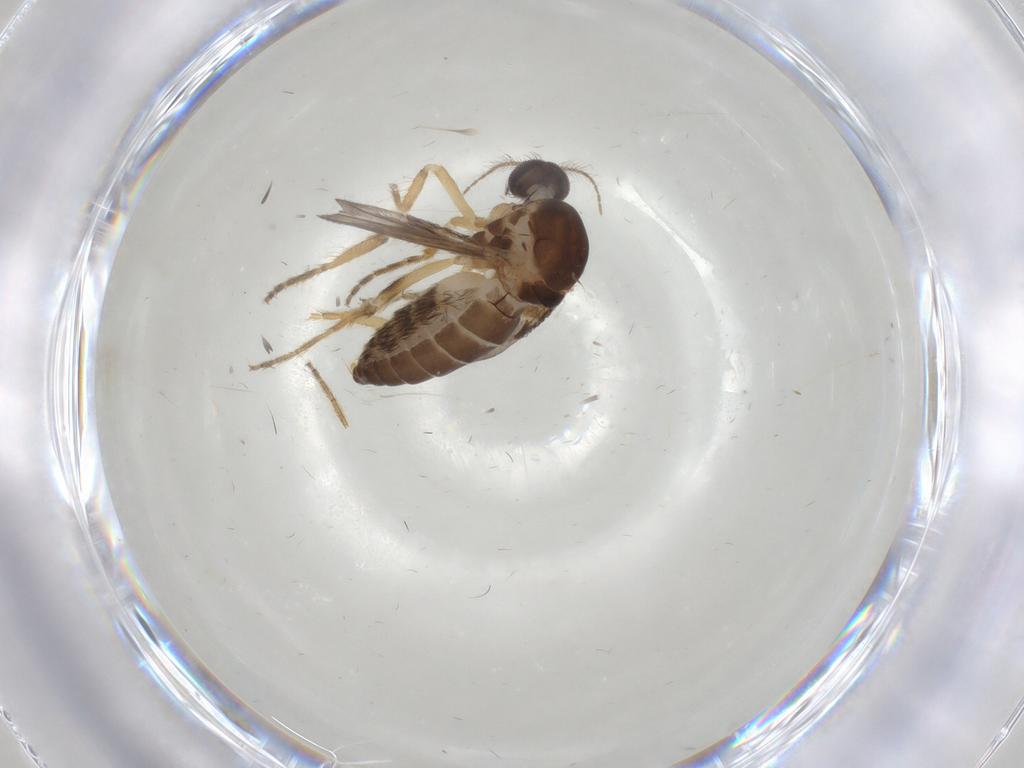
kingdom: Animalia
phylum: Arthropoda
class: Insecta
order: Diptera
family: Ceratopogonidae
